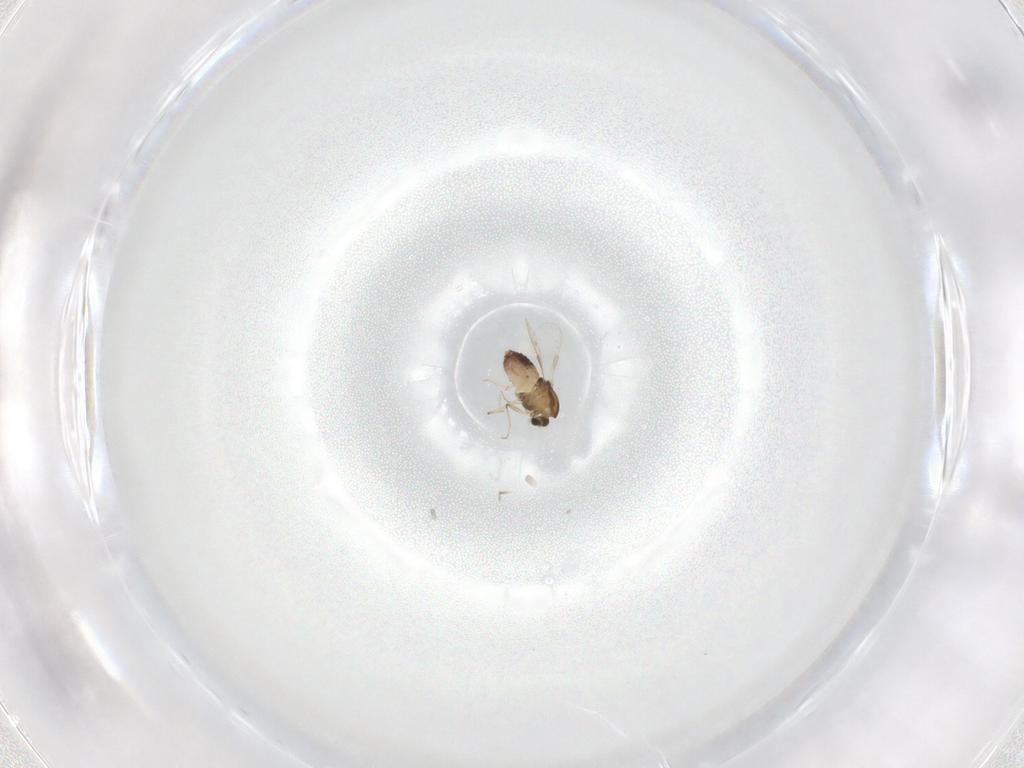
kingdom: Animalia
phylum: Arthropoda
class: Insecta
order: Diptera
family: Chironomidae
